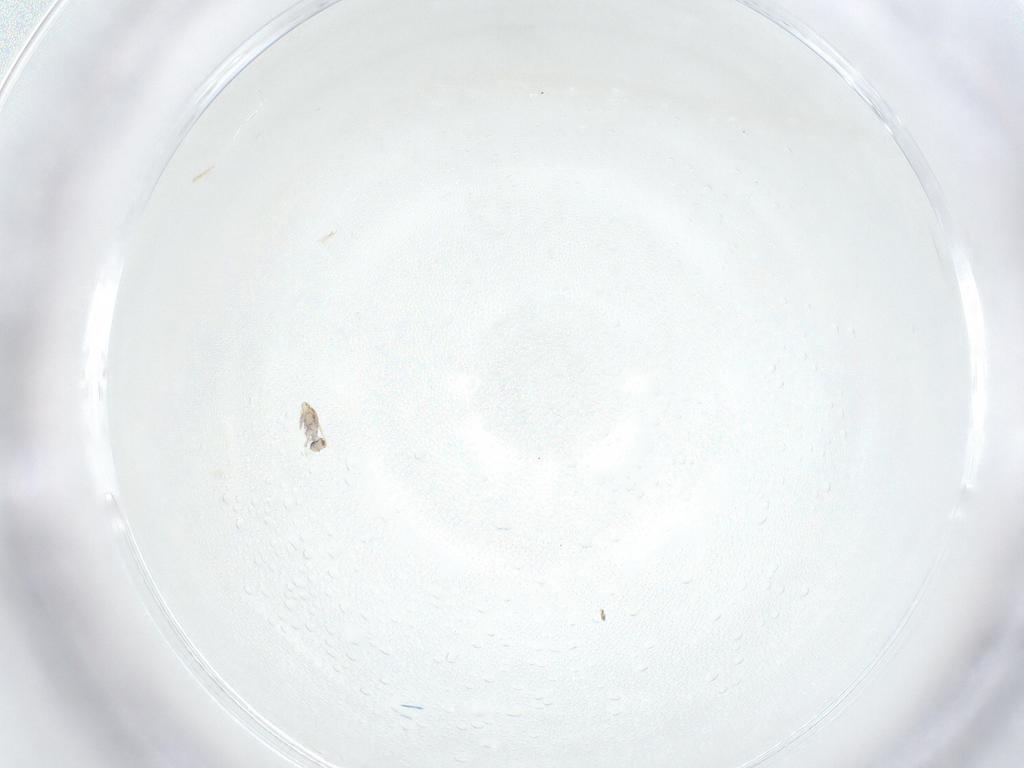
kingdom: Animalia
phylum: Arthropoda
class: Collembola
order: Symphypleona
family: Katiannidae
